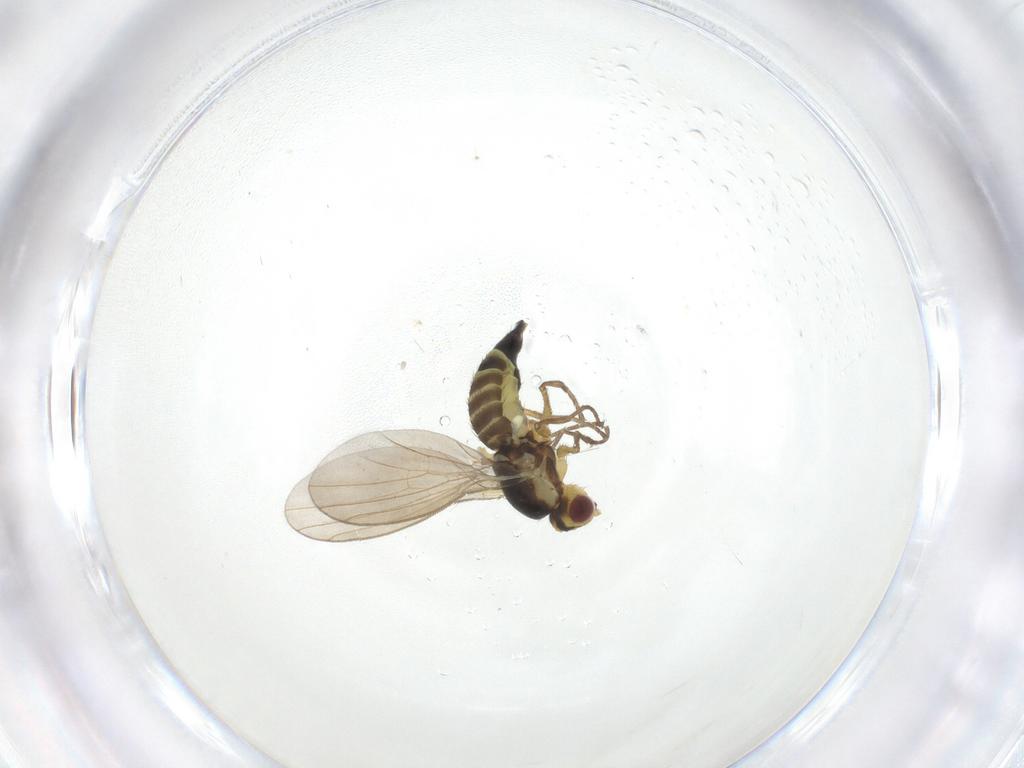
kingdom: Animalia
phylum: Arthropoda
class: Insecta
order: Diptera
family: Agromyzidae
